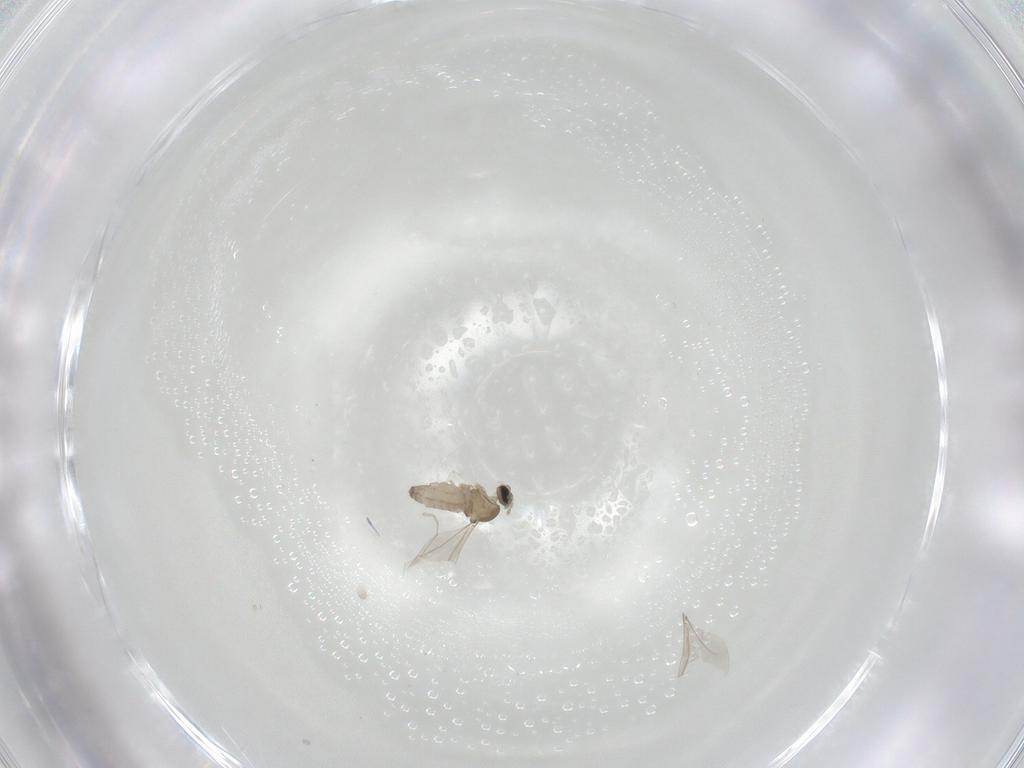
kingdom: Animalia
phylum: Arthropoda
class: Insecta
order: Diptera
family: Cecidomyiidae
